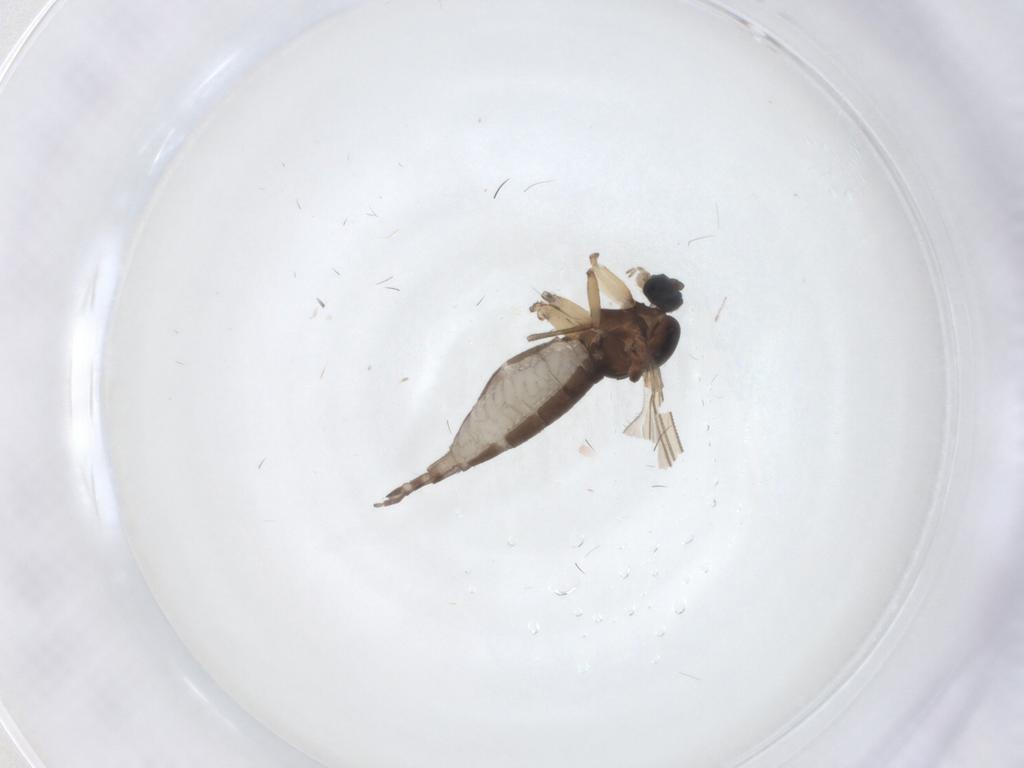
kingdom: Animalia
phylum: Arthropoda
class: Insecta
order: Diptera
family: Sciaridae
